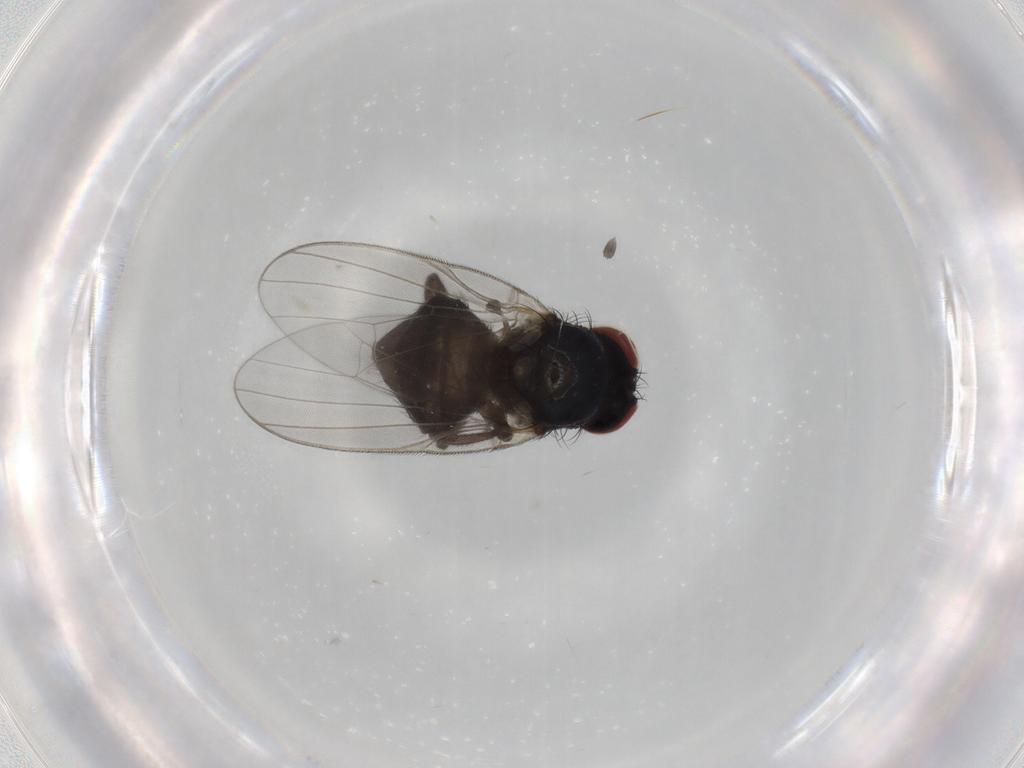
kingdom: Animalia
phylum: Arthropoda
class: Insecta
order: Diptera
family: Lonchaeidae
